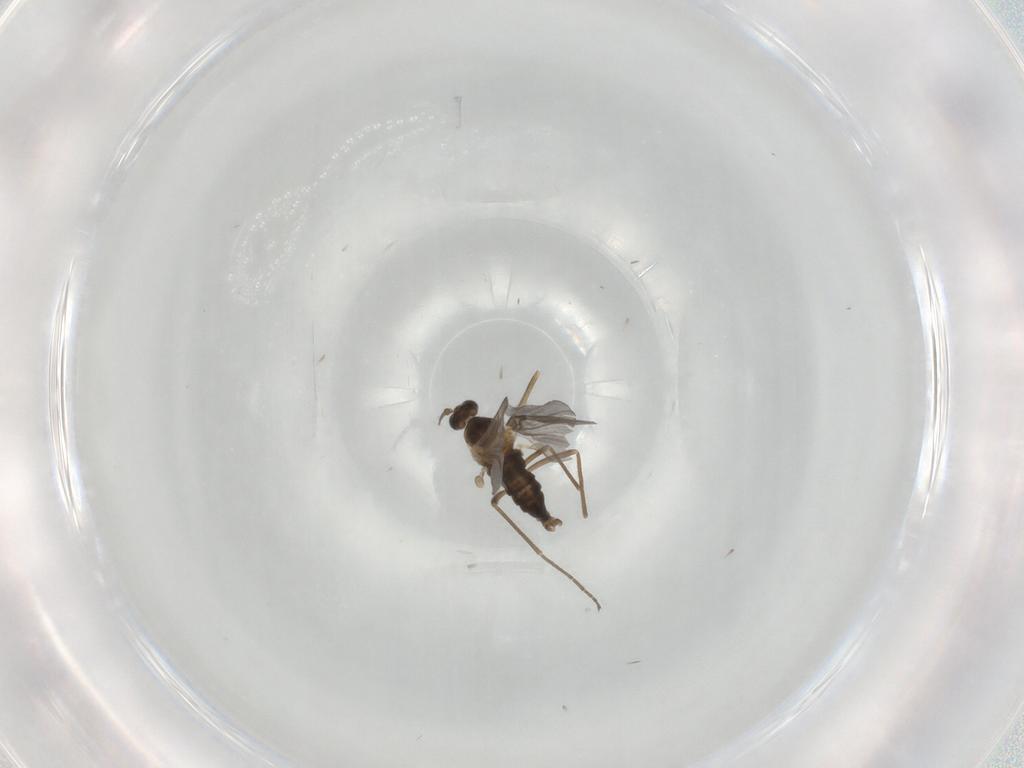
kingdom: Animalia
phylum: Arthropoda
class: Insecta
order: Diptera
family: Cecidomyiidae
